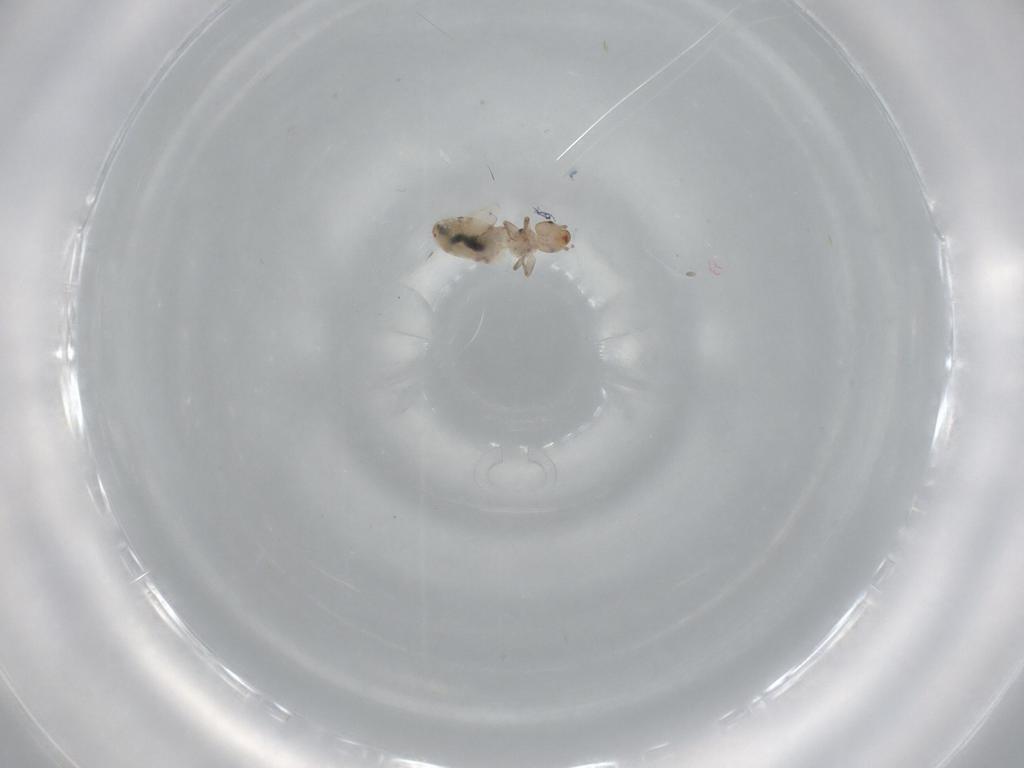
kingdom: Animalia
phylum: Arthropoda
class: Insecta
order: Psocodea
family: Liposcelididae
